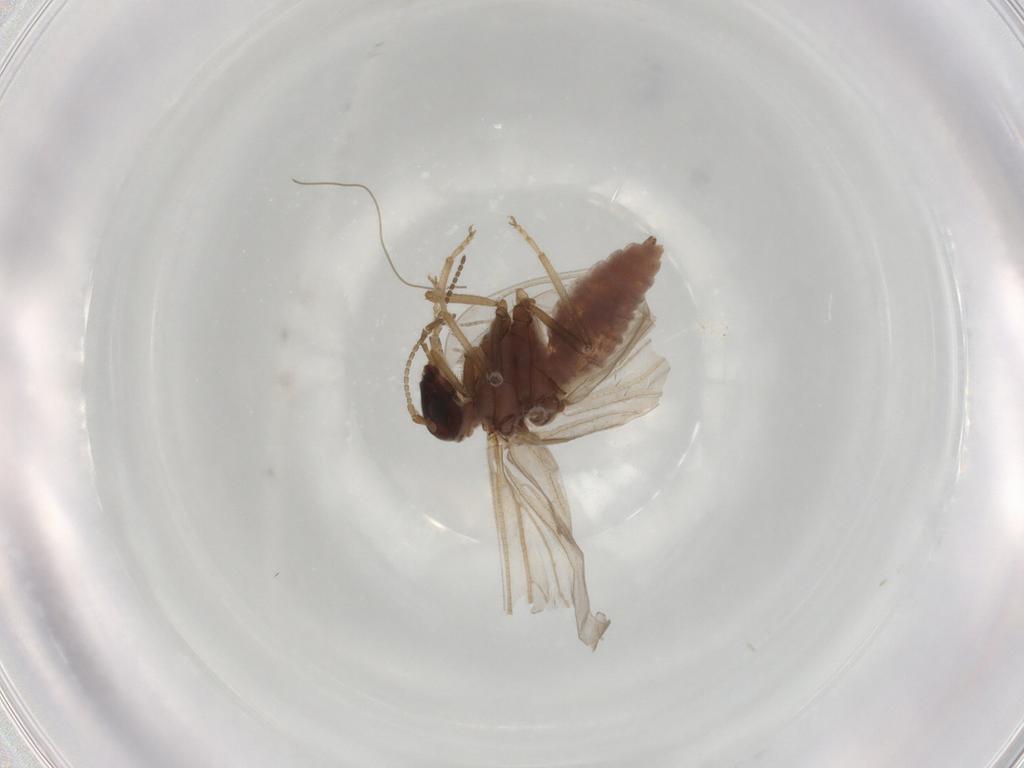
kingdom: Animalia
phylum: Arthropoda
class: Insecta
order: Neuroptera
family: Coniopterygidae
